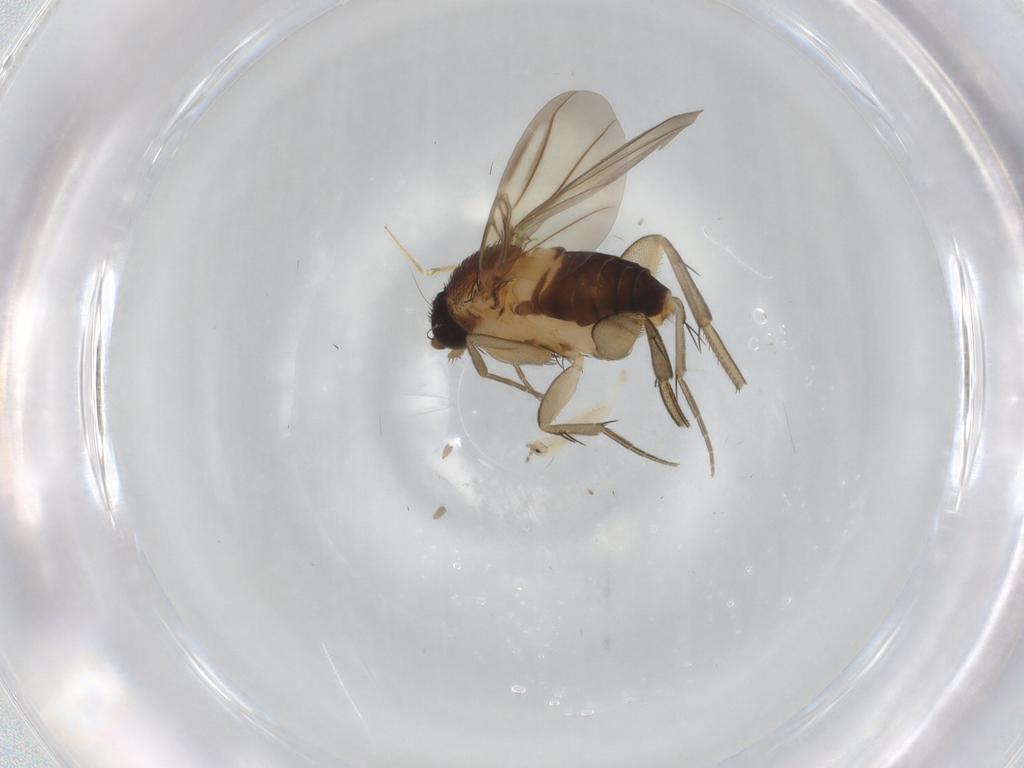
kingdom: Animalia
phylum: Arthropoda
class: Insecta
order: Diptera
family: Phoridae
